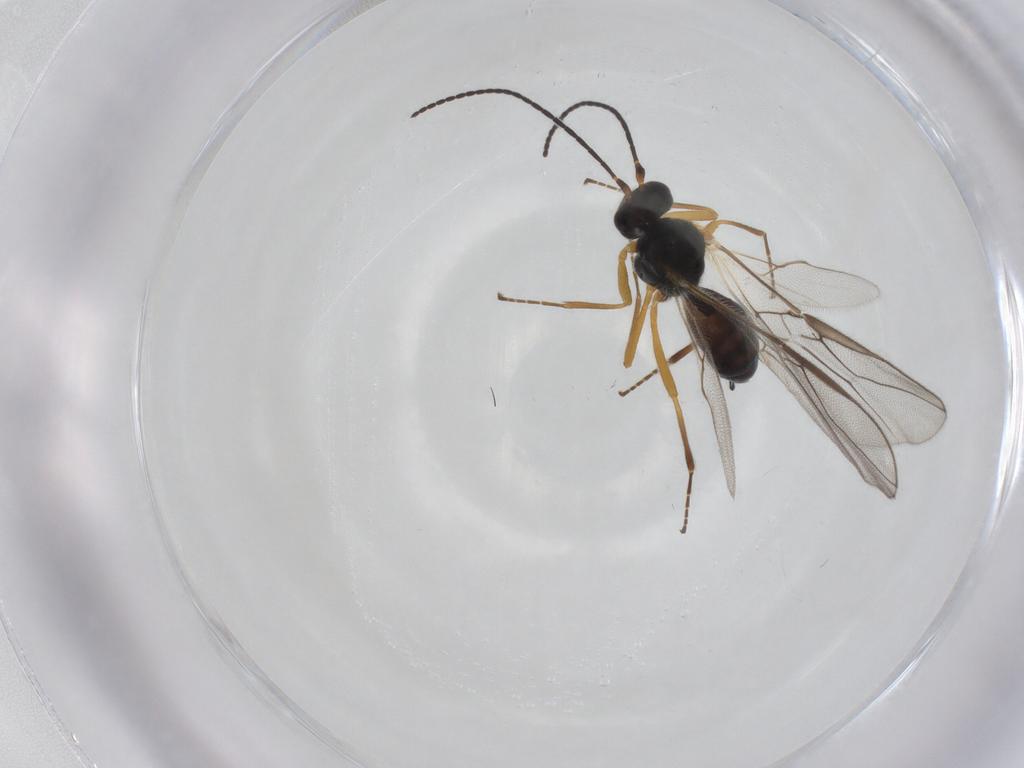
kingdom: Animalia
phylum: Arthropoda
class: Insecta
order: Hymenoptera
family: Braconidae
